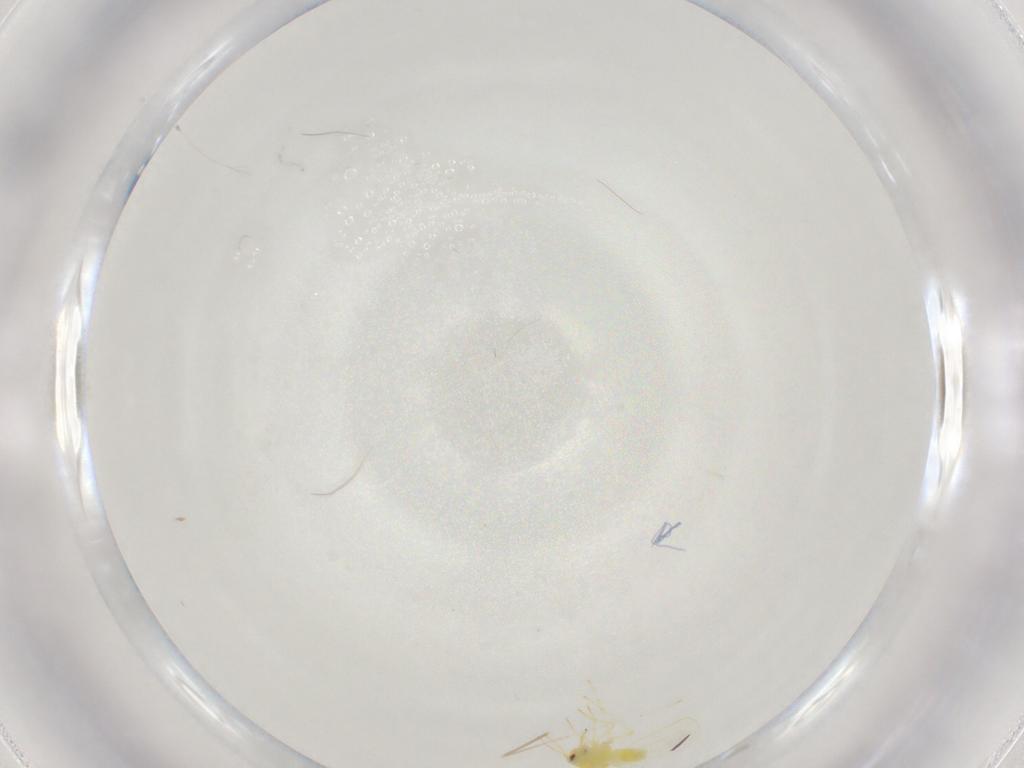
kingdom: Animalia
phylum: Arthropoda
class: Insecta
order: Hemiptera
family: Aleyrodidae
